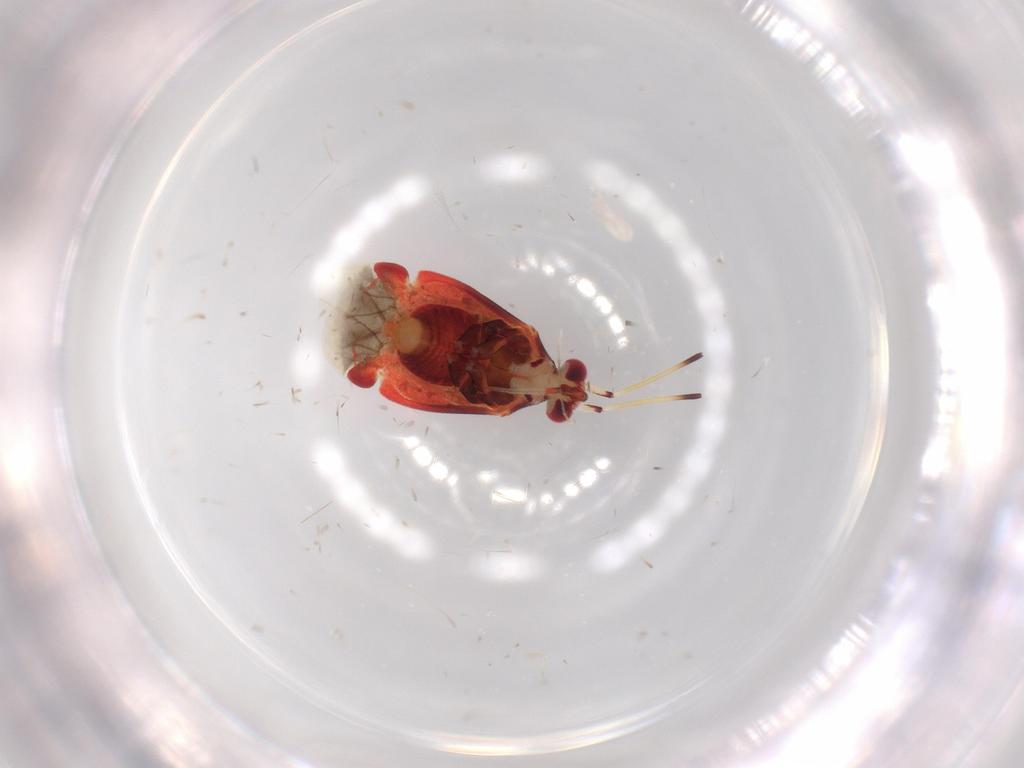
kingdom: Animalia
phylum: Arthropoda
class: Insecta
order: Hemiptera
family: Miridae
